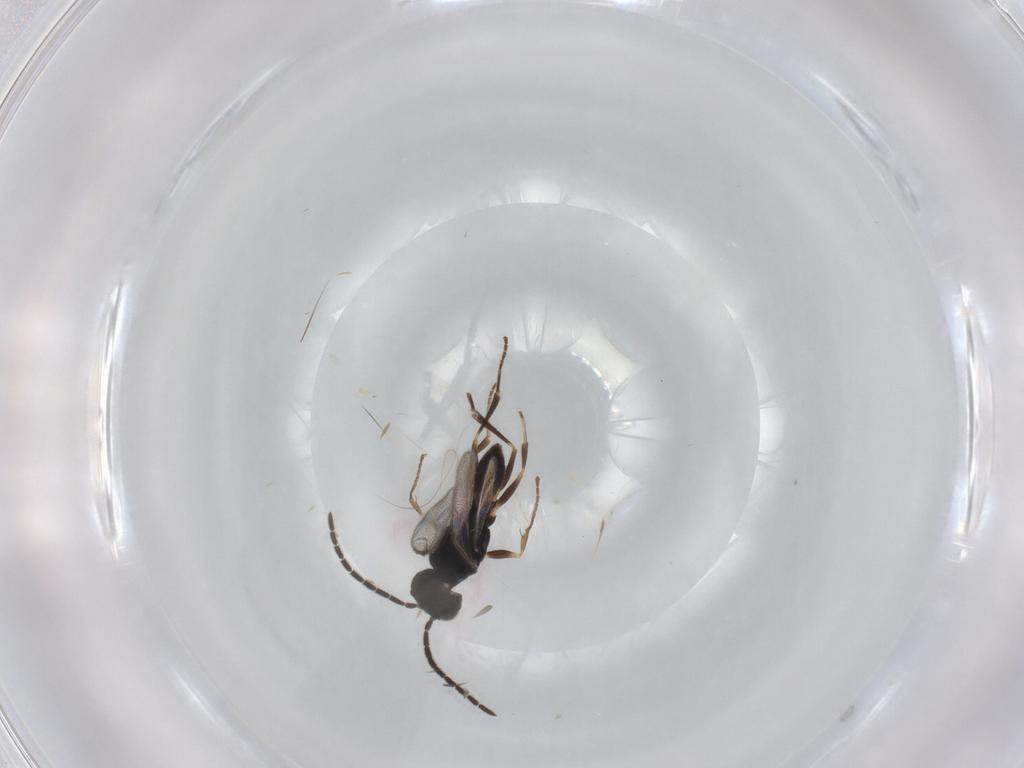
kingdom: Animalia
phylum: Arthropoda
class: Insecta
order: Hymenoptera
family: Dryinidae
